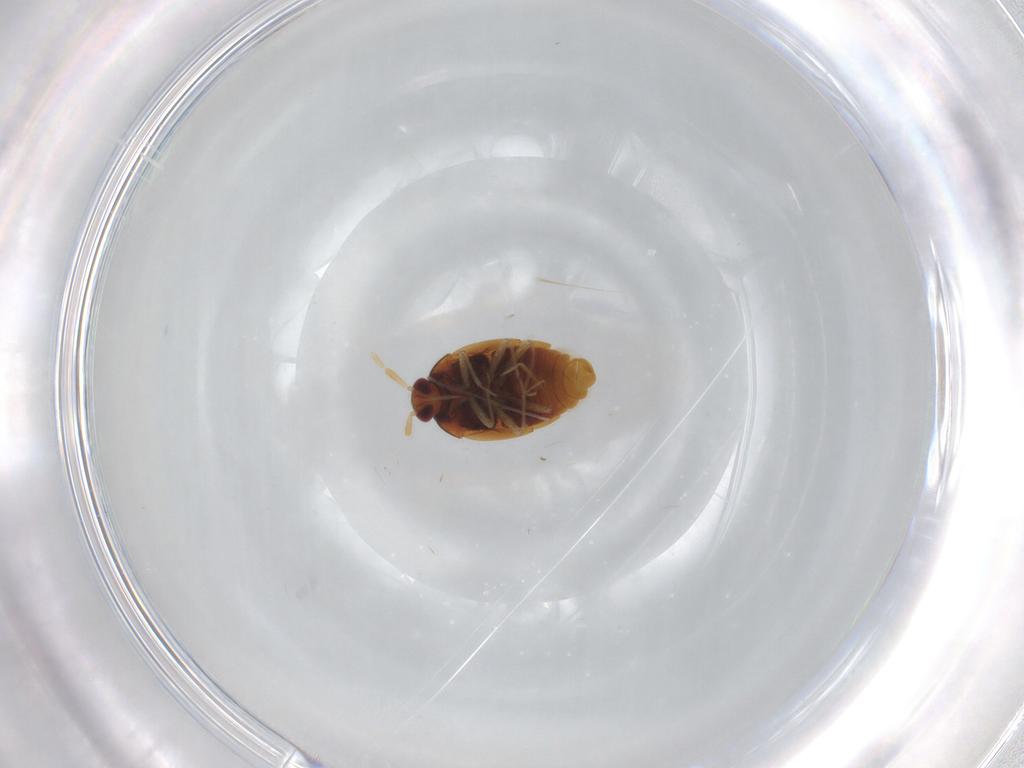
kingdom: Animalia
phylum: Arthropoda
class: Insecta
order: Hemiptera
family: Anthocoridae
